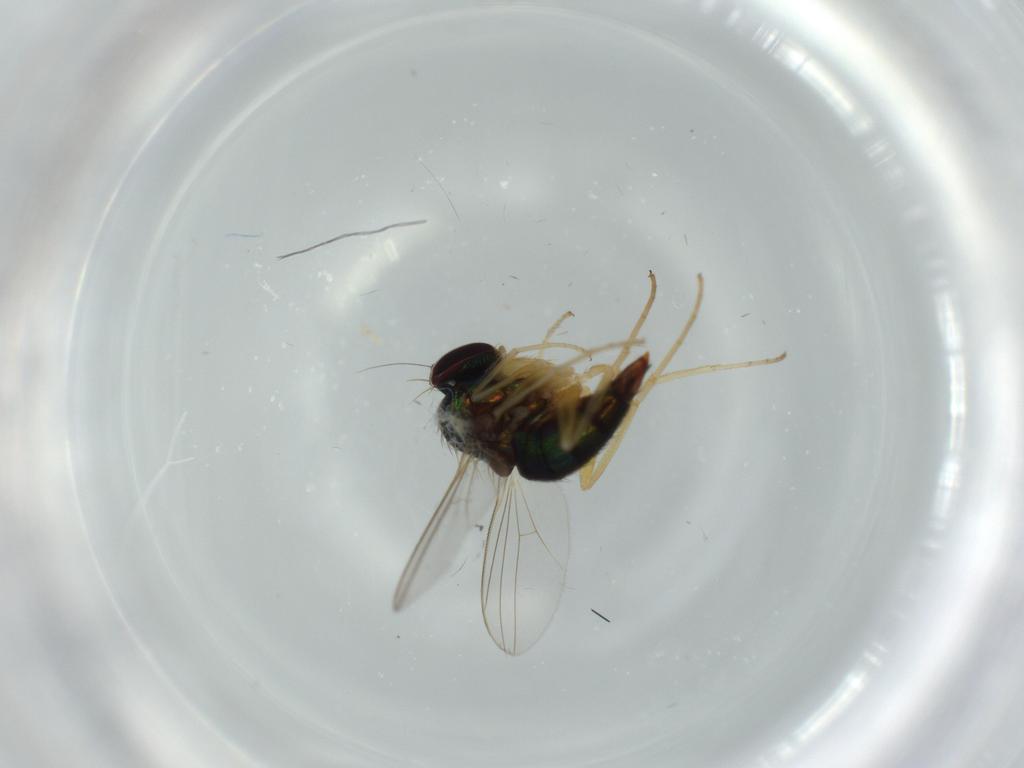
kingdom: Animalia
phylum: Arthropoda
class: Insecta
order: Diptera
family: Dolichopodidae
